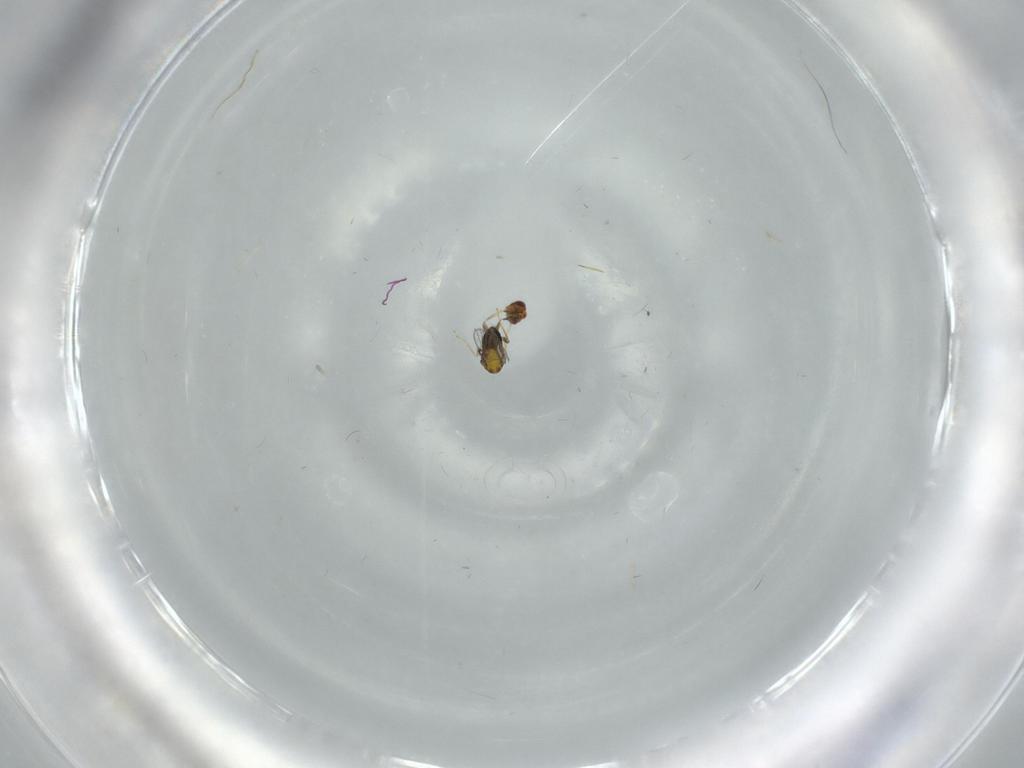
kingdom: Animalia
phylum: Arthropoda
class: Insecta
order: Hymenoptera
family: Trichogrammatidae
